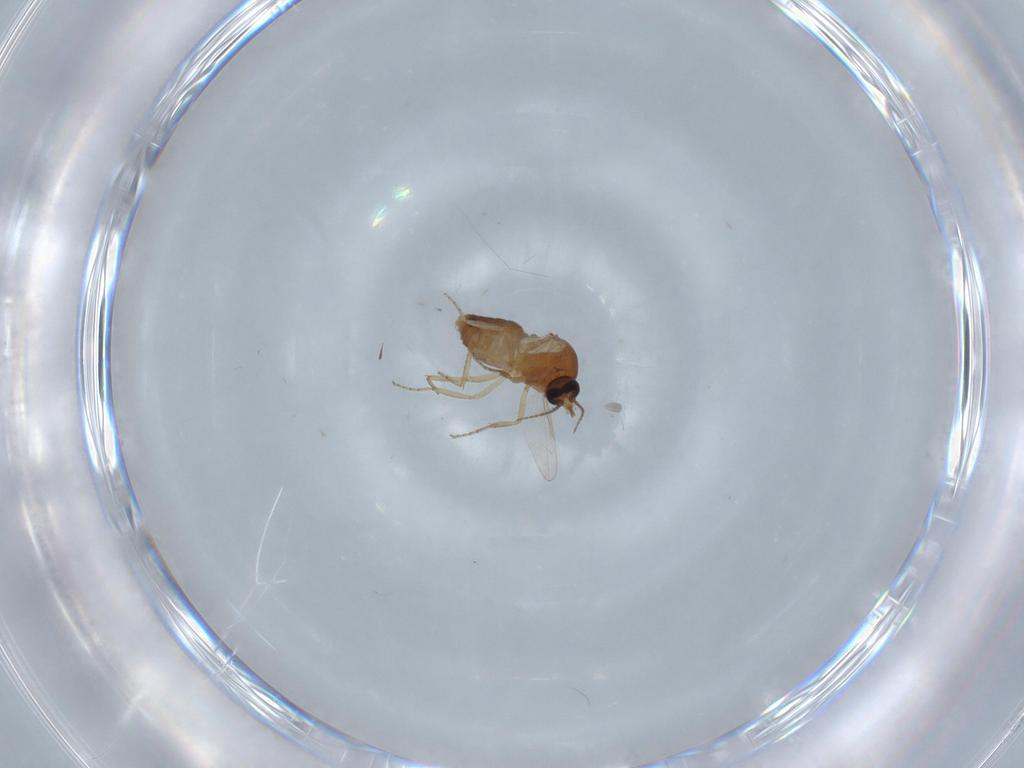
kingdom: Animalia
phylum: Arthropoda
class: Insecta
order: Diptera
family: Ceratopogonidae
